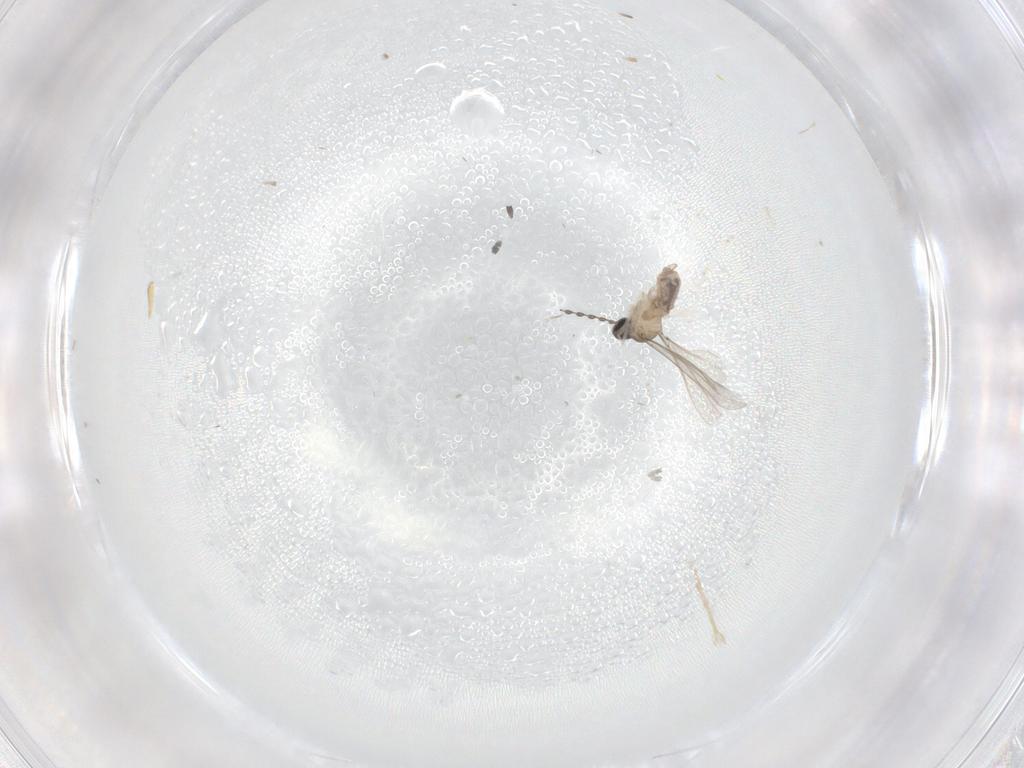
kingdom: Animalia
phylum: Arthropoda
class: Insecta
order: Diptera
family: Cecidomyiidae
